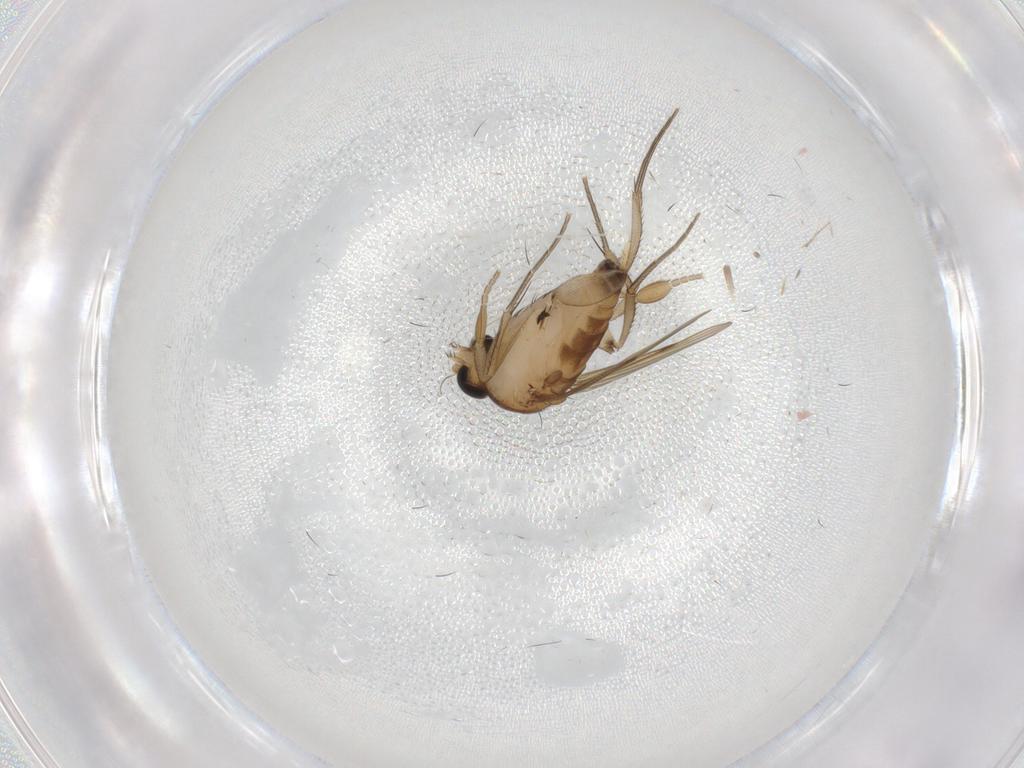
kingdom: Animalia
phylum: Arthropoda
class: Insecta
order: Diptera
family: Phoridae
